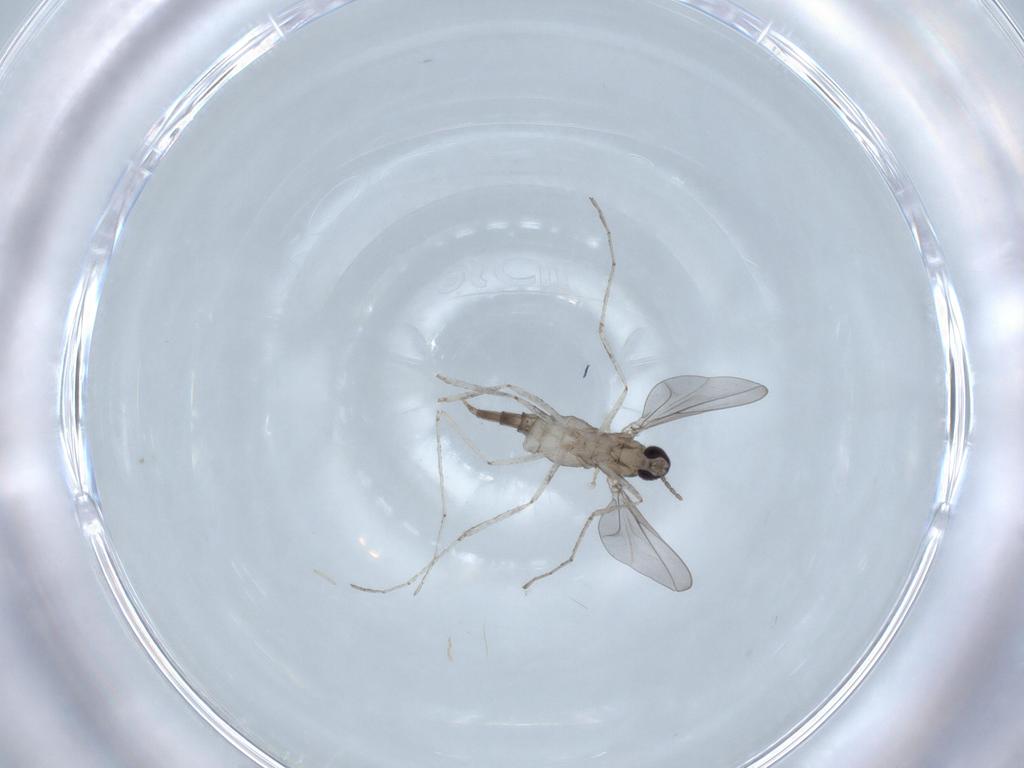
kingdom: Animalia
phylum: Arthropoda
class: Insecta
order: Diptera
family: Cecidomyiidae
